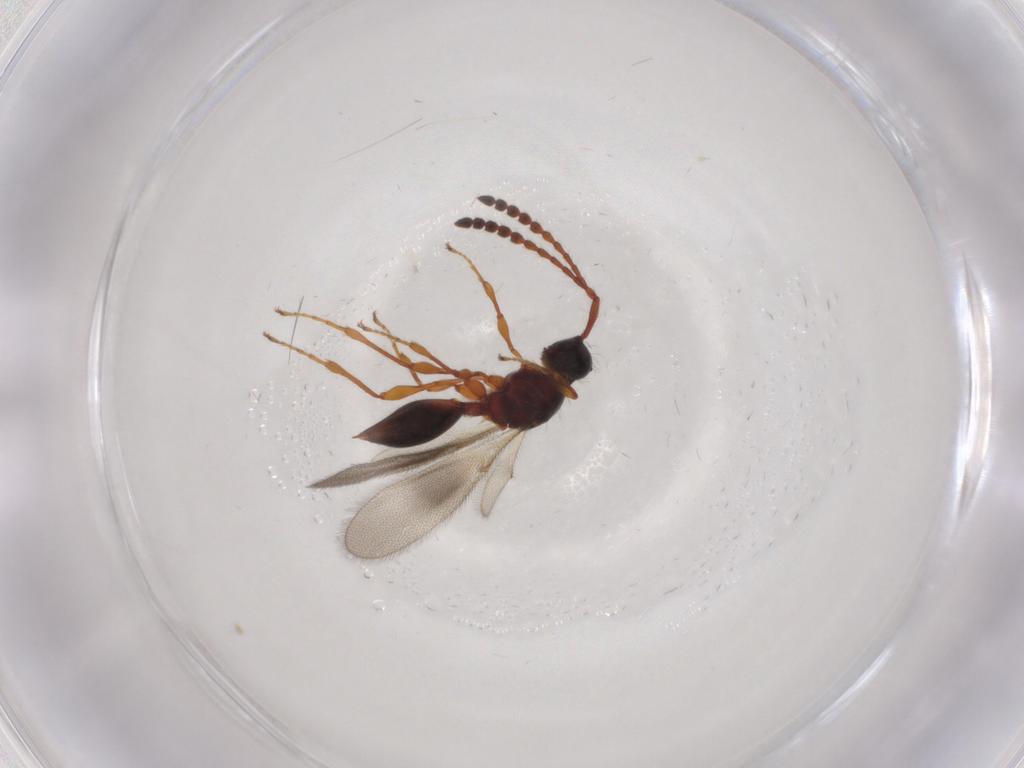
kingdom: Animalia
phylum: Arthropoda
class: Insecta
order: Hymenoptera
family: Diapriidae
